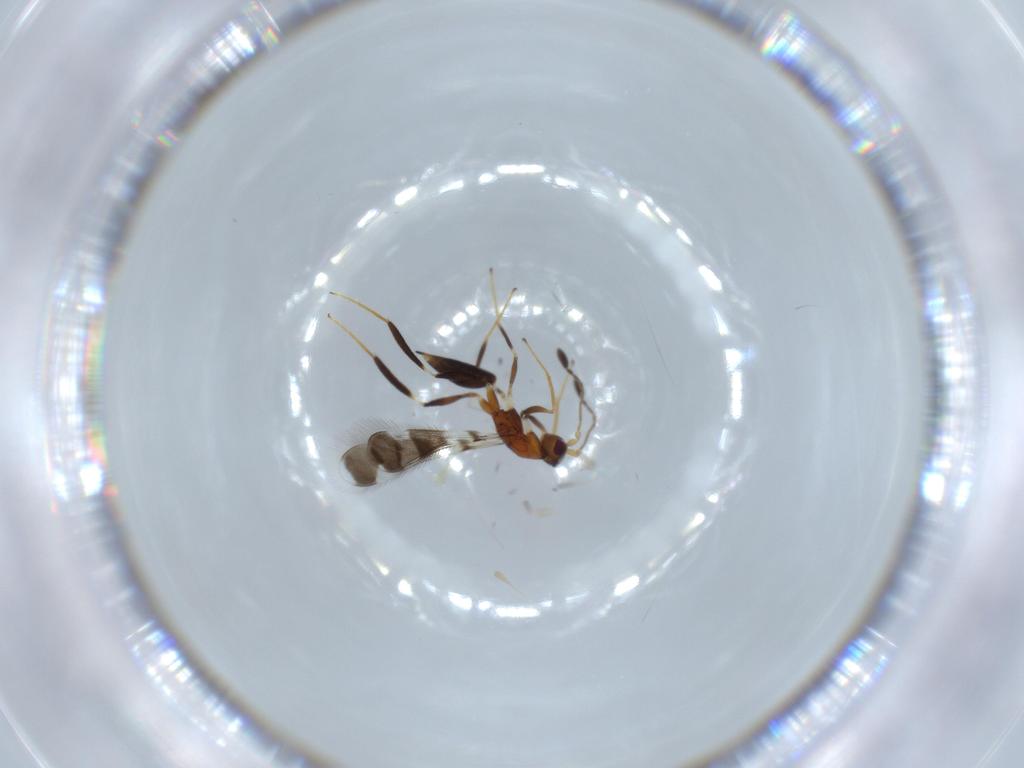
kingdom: Animalia
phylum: Arthropoda
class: Insecta
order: Hymenoptera
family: Mymaridae
